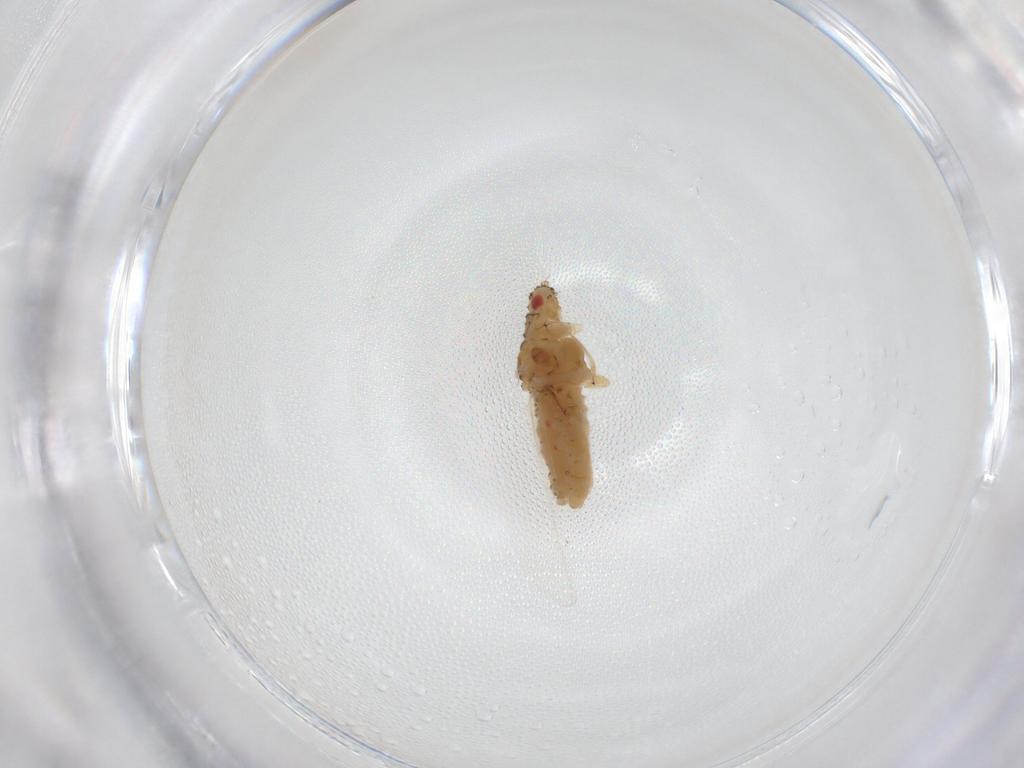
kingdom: Animalia
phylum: Arthropoda
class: Insecta
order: Hemiptera
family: Aphididae
